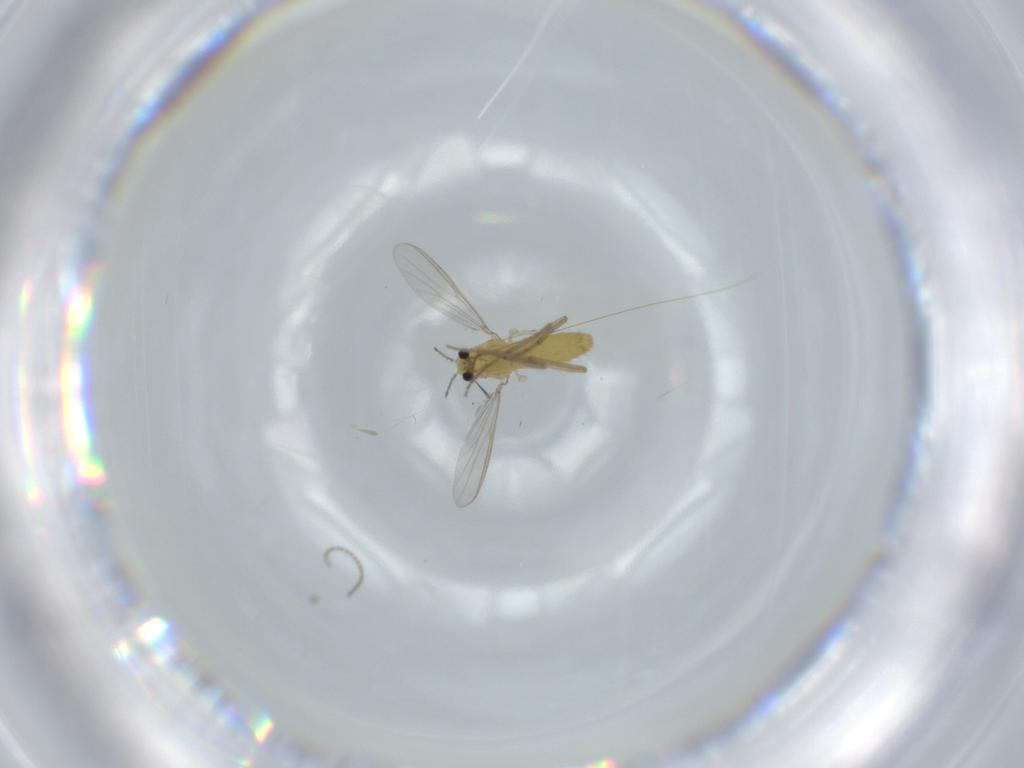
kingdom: Animalia
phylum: Arthropoda
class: Insecta
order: Diptera
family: Chironomidae
